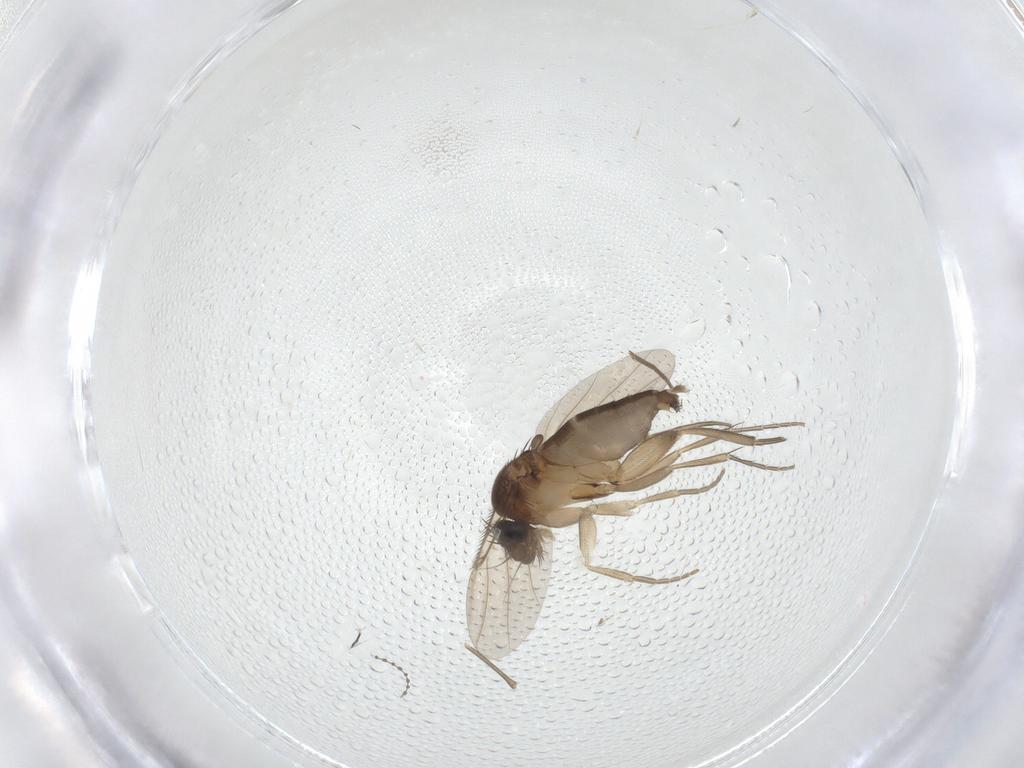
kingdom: Animalia
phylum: Arthropoda
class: Insecta
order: Diptera
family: Phoridae
